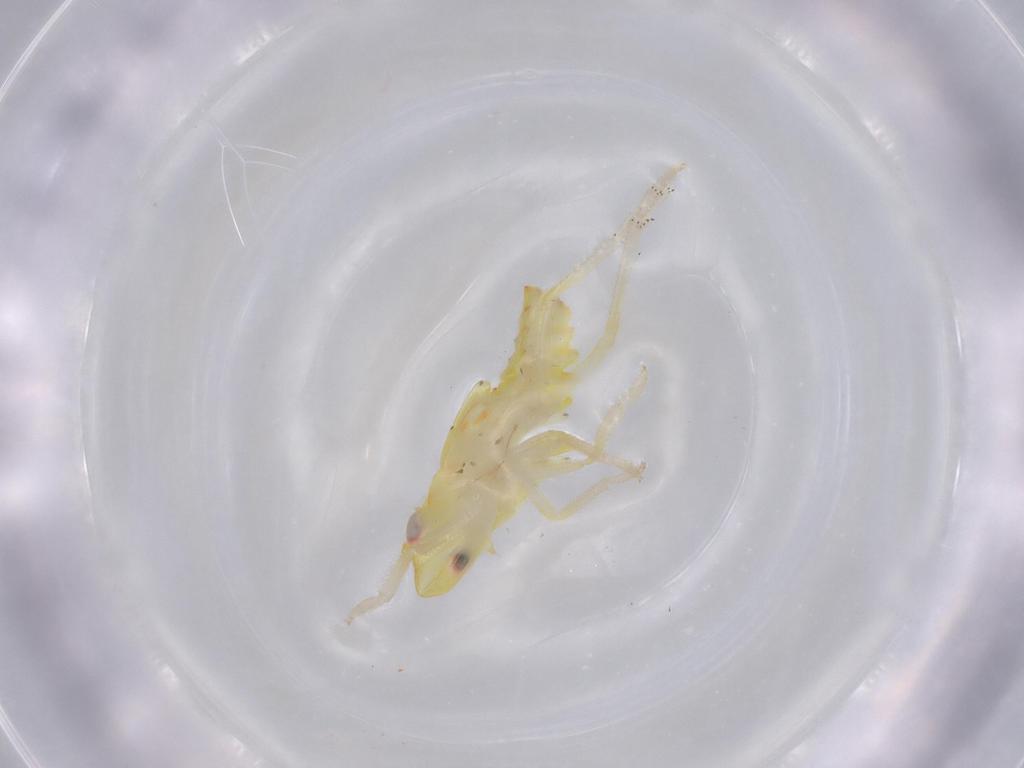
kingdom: Animalia
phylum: Arthropoda
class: Insecta
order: Hemiptera
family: Tropiduchidae
